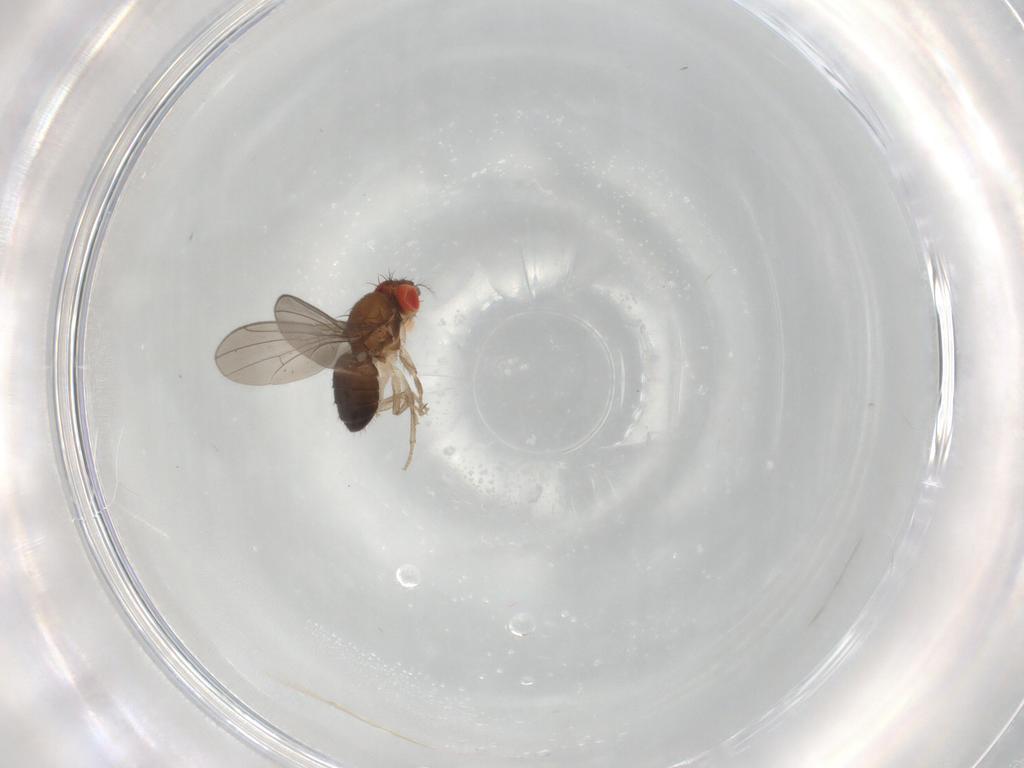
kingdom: Animalia
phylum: Arthropoda
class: Insecta
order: Diptera
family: Drosophilidae
